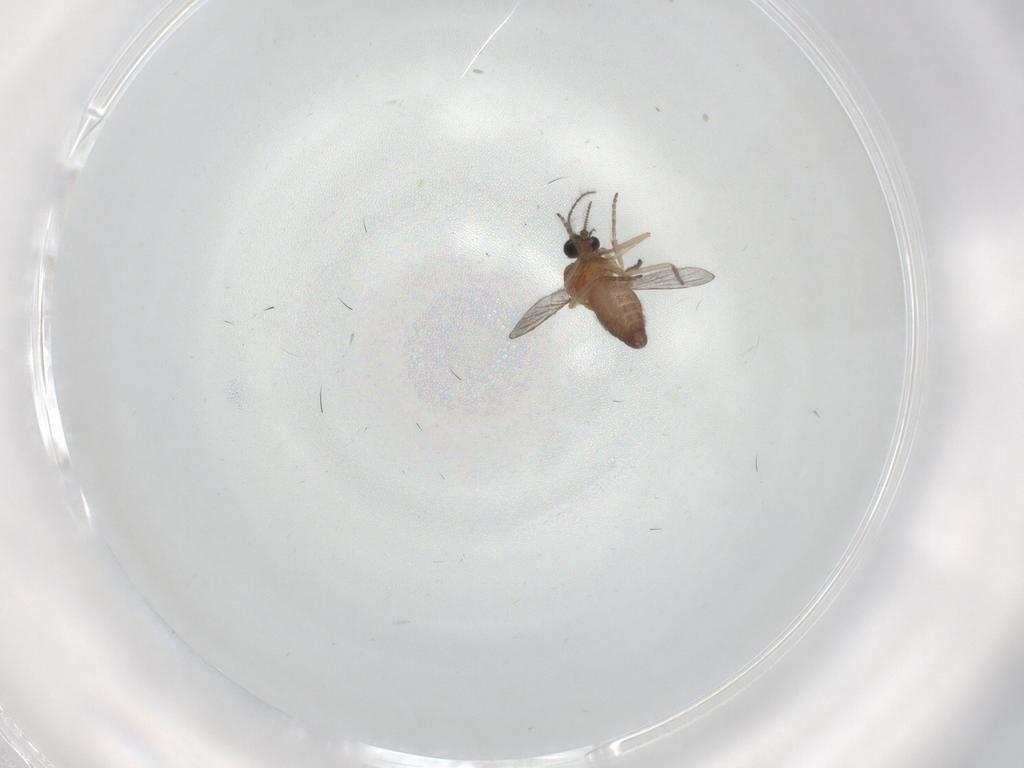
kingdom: Animalia
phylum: Arthropoda
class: Insecta
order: Diptera
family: Ceratopogonidae
